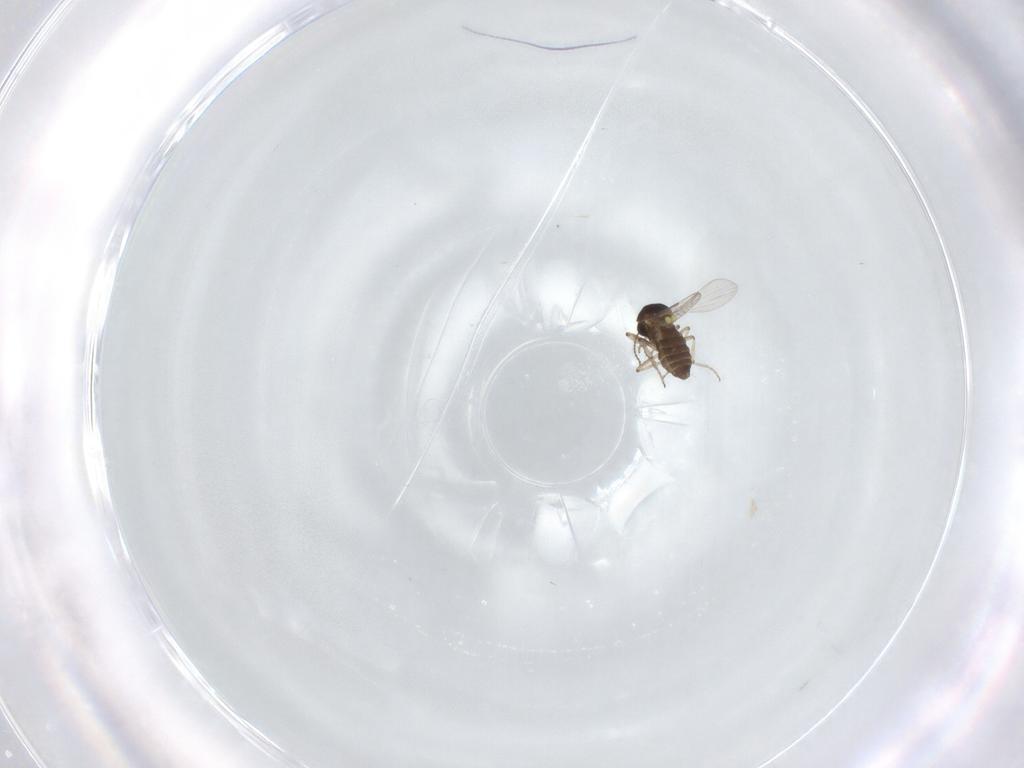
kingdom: Animalia
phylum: Arthropoda
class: Insecta
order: Diptera
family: Ceratopogonidae
